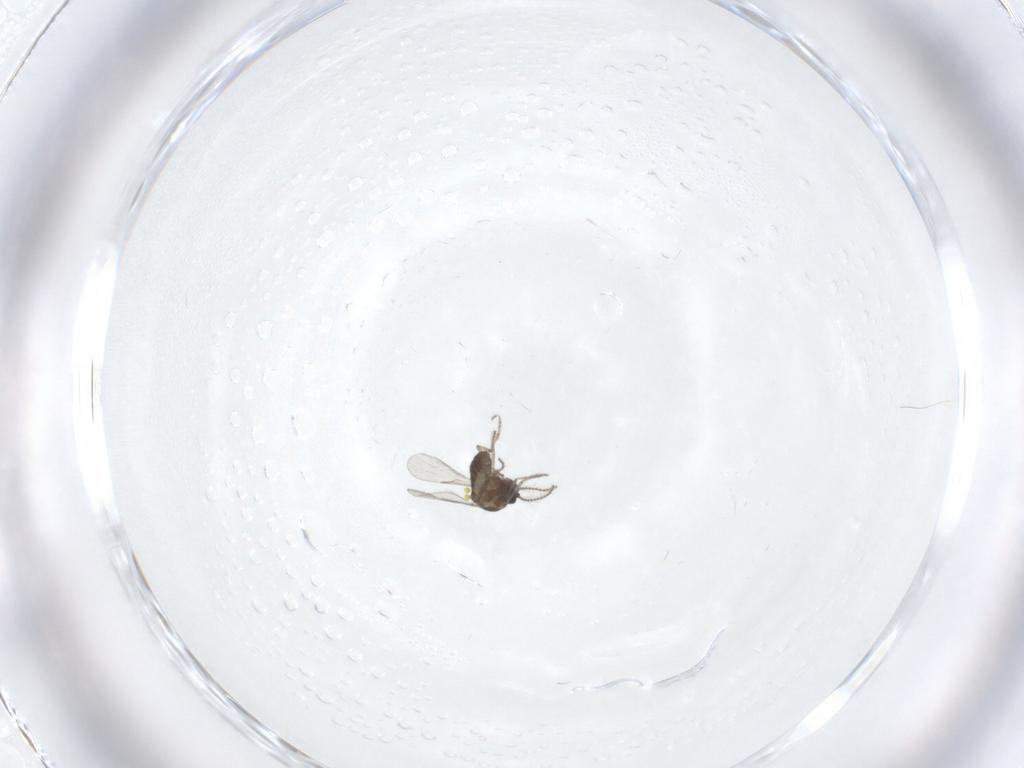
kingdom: Animalia
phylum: Arthropoda
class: Insecta
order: Diptera
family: Ceratopogonidae
